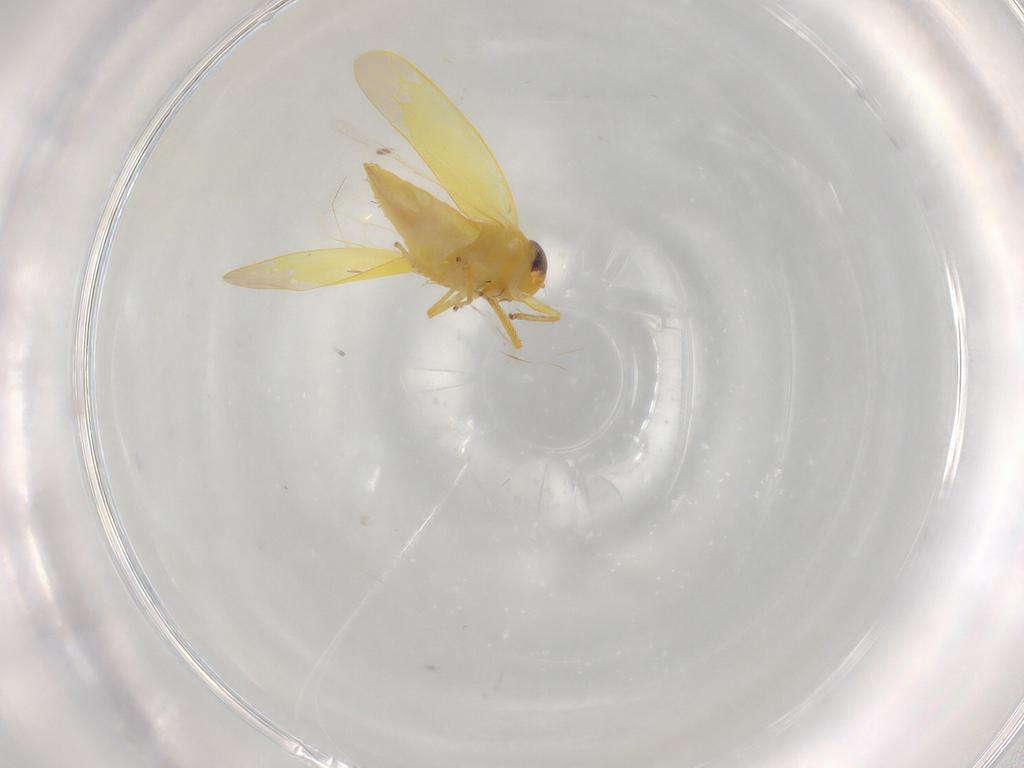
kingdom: Animalia
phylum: Arthropoda
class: Insecta
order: Hemiptera
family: Cicadellidae
